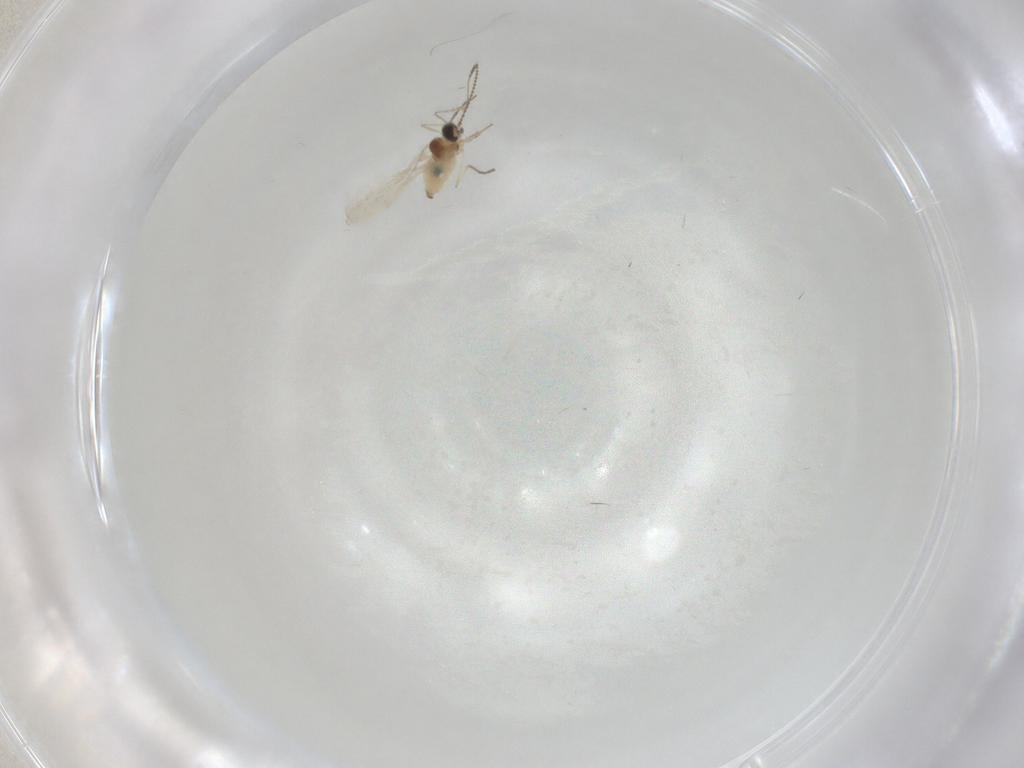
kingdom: Animalia
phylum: Arthropoda
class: Insecta
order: Diptera
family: Cecidomyiidae
